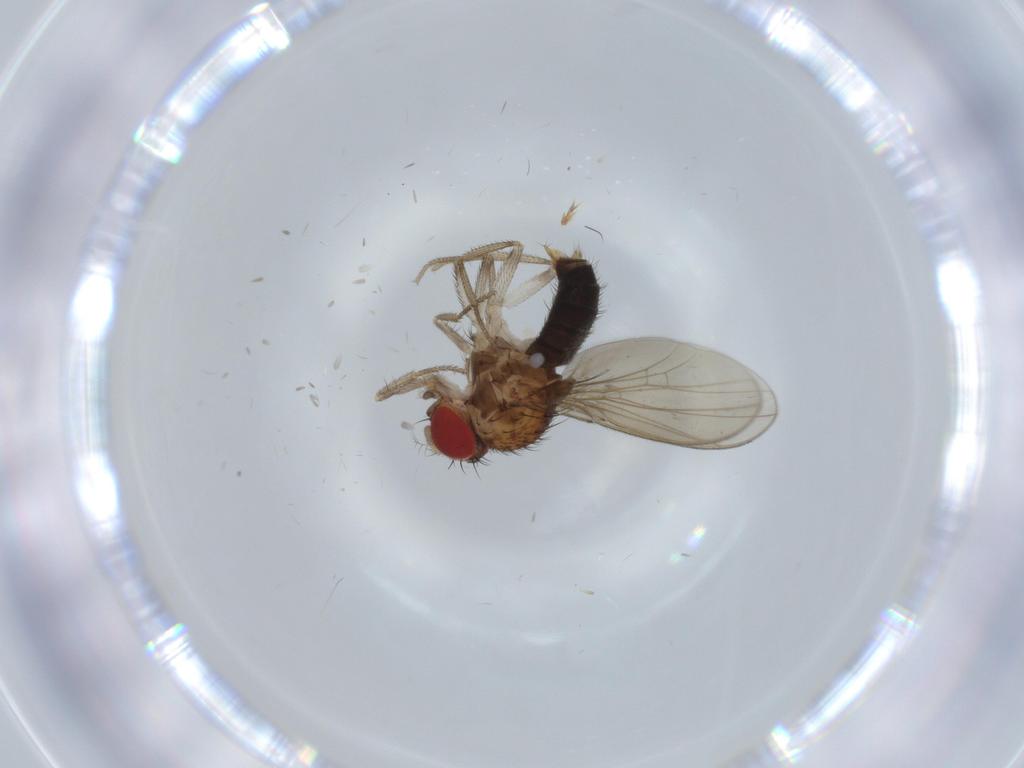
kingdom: Animalia
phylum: Arthropoda
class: Insecta
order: Diptera
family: Drosophilidae
